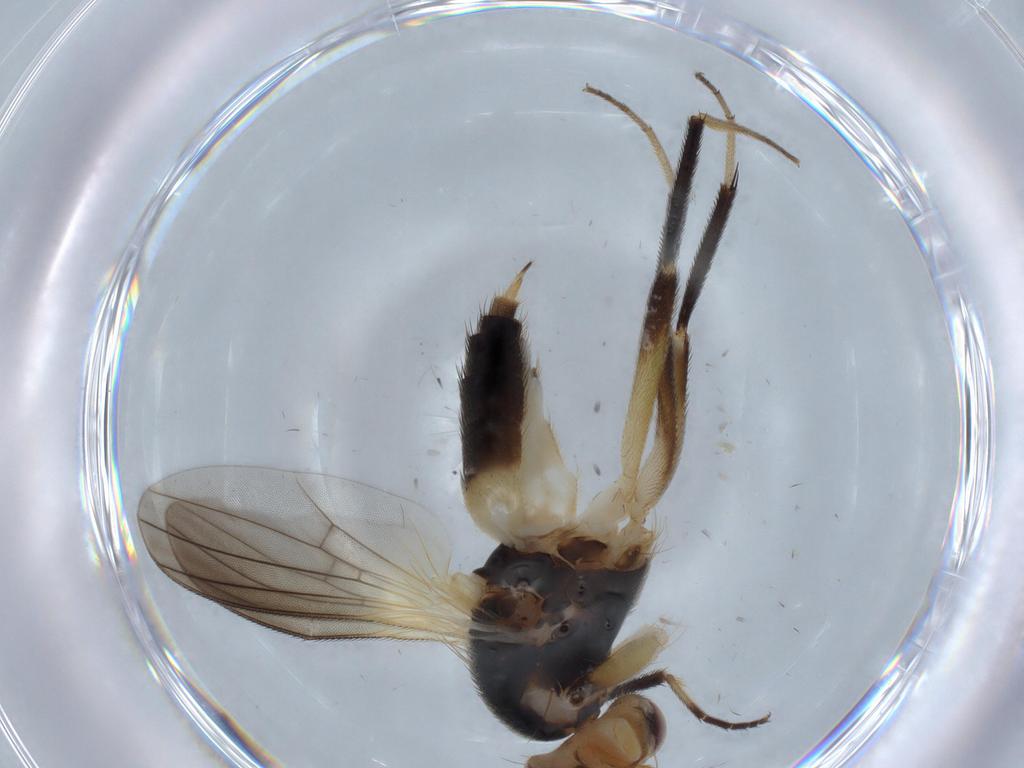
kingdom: Animalia
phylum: Arthropoda
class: Insecta
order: Diptera
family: Clusiidae
